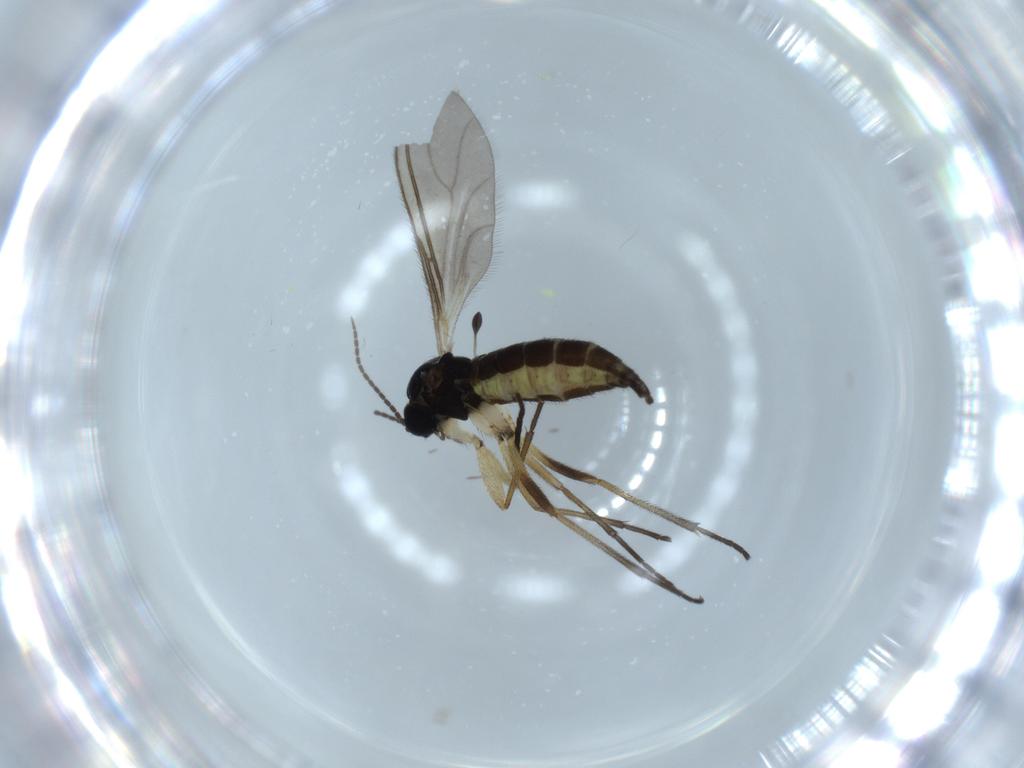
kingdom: Animalia
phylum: Arthropoda
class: Insecta
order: Diptera
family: Sciaridae
